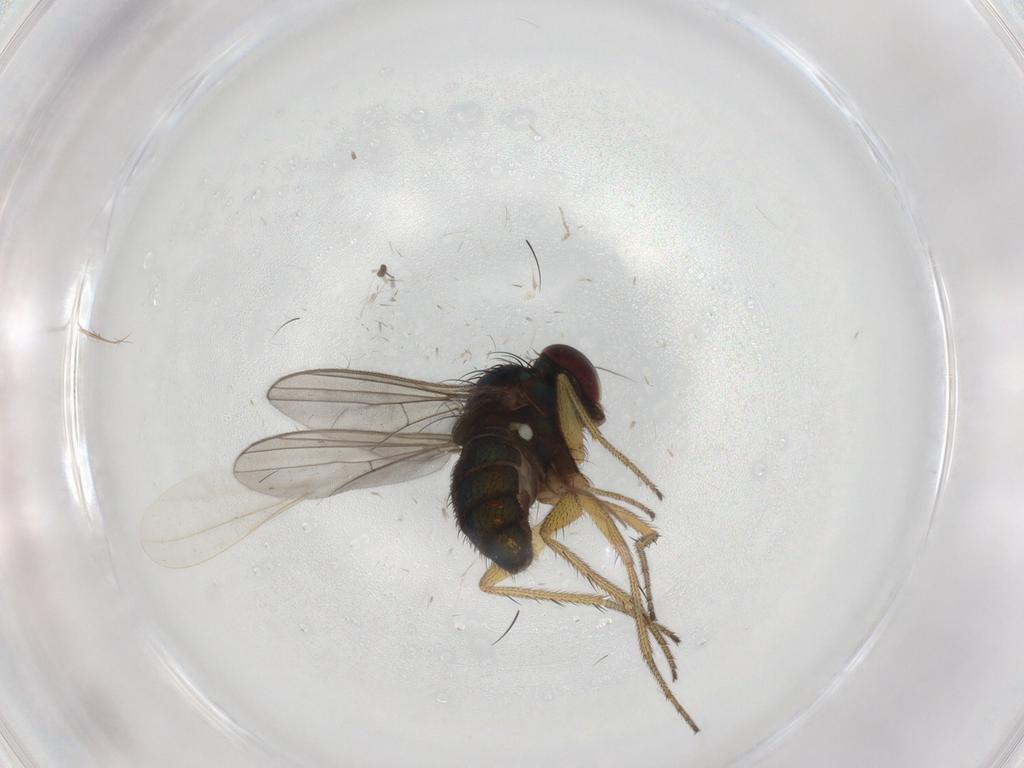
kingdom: Animalia
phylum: Arthropoda
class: Insecta
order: Diptera
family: Dolichopodidae
